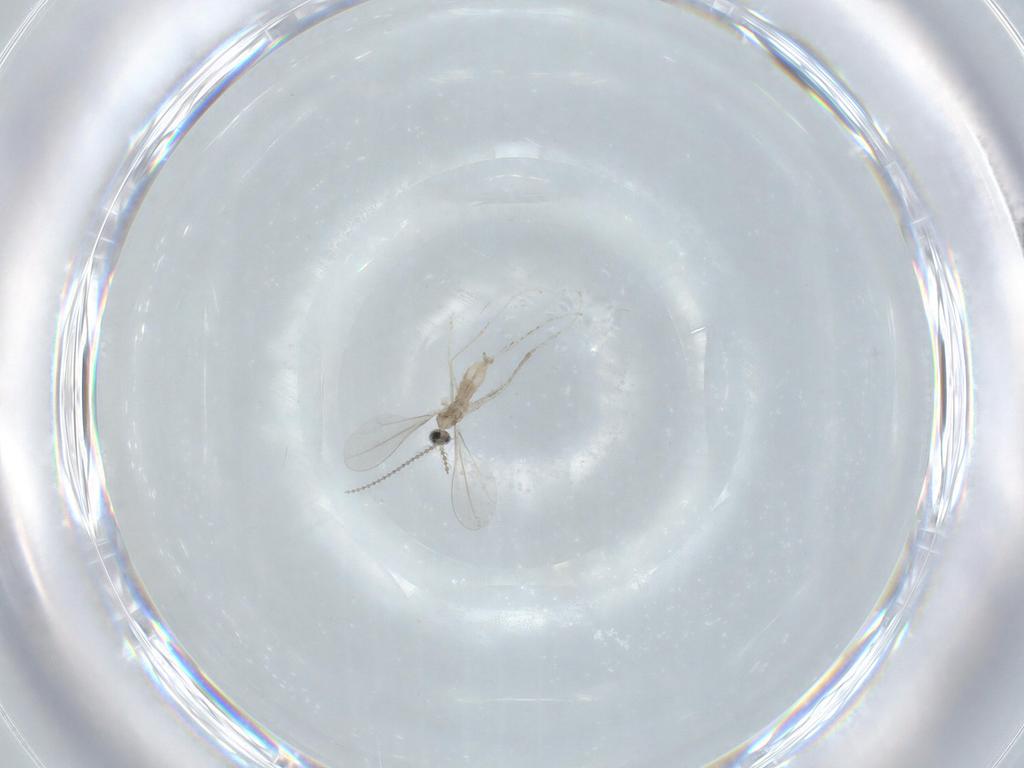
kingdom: Animalia
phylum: Arthropoda
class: Insecta
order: Diptera
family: Cecidomyiidae
